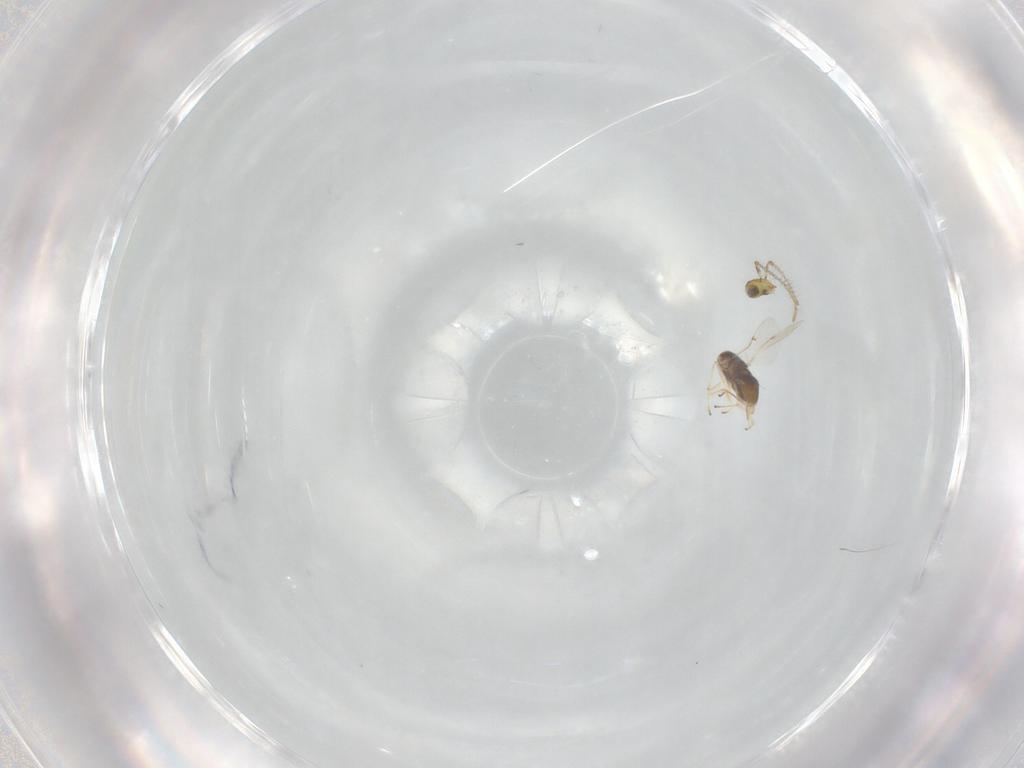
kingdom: Animalia
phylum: Arthropoda
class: Insecta
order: Hymenoptera
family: Encyrtidae
